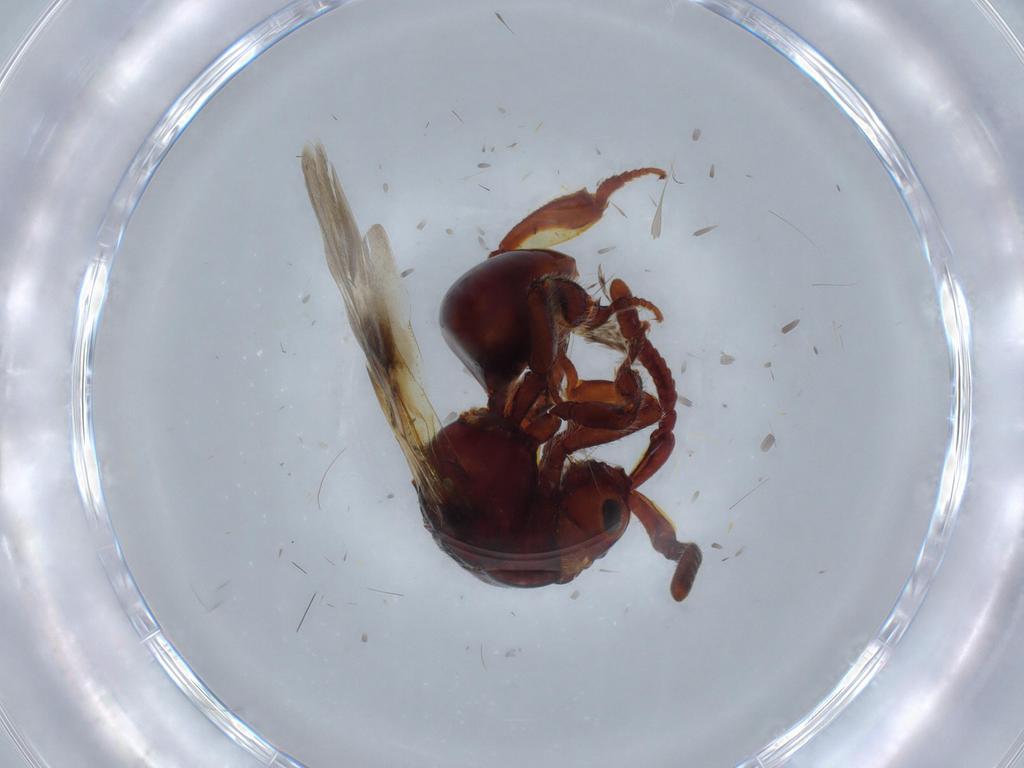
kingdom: Animalia
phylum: Arthropoda
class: Insecta
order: Hymenoptera
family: Chrysididae
